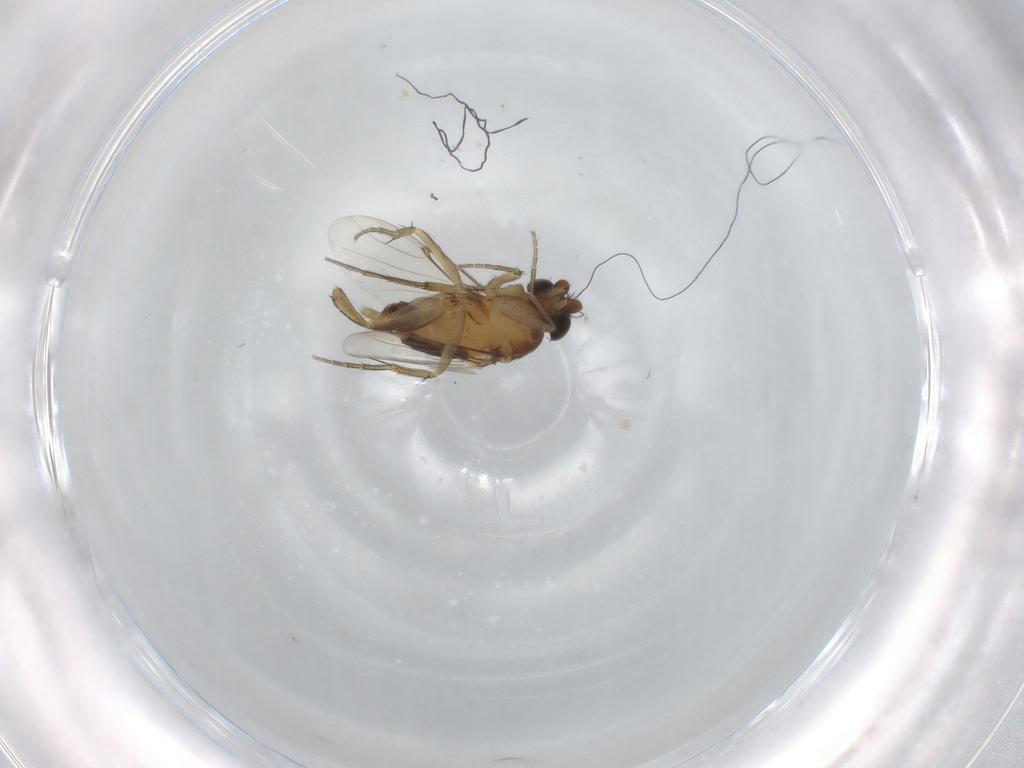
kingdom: Animalia
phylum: Arthropoda
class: Insecta
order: Diptera
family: Phoridae
